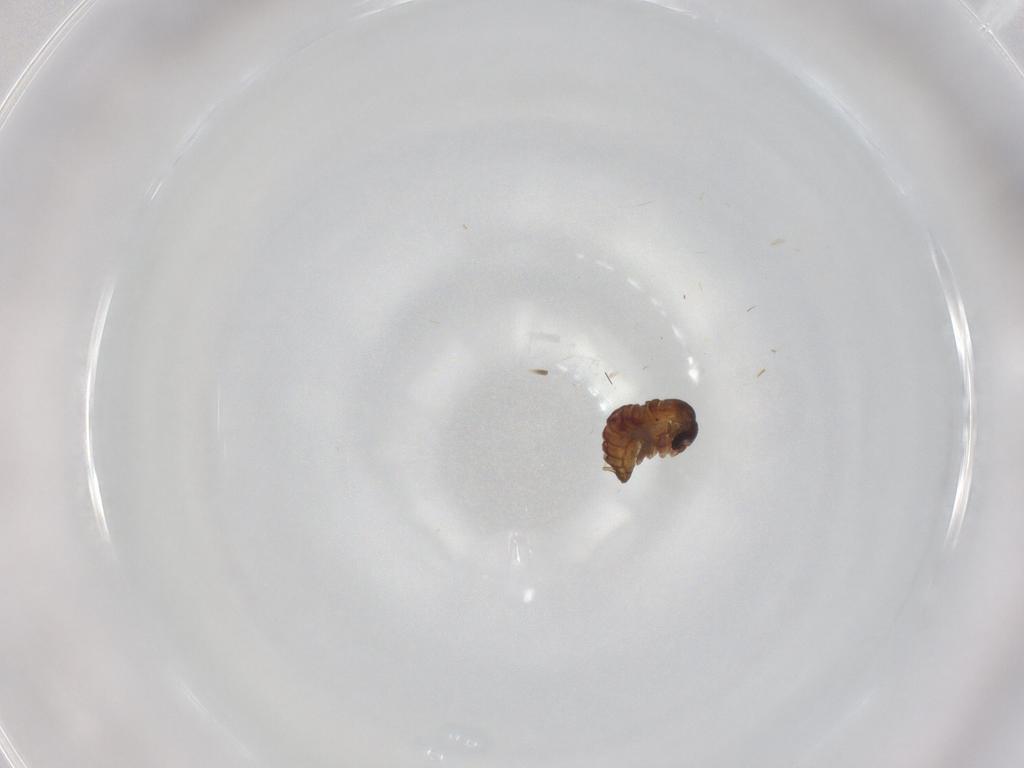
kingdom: Animalia
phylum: Arthropoda
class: Insecta
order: Diptera
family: Psychodidae
